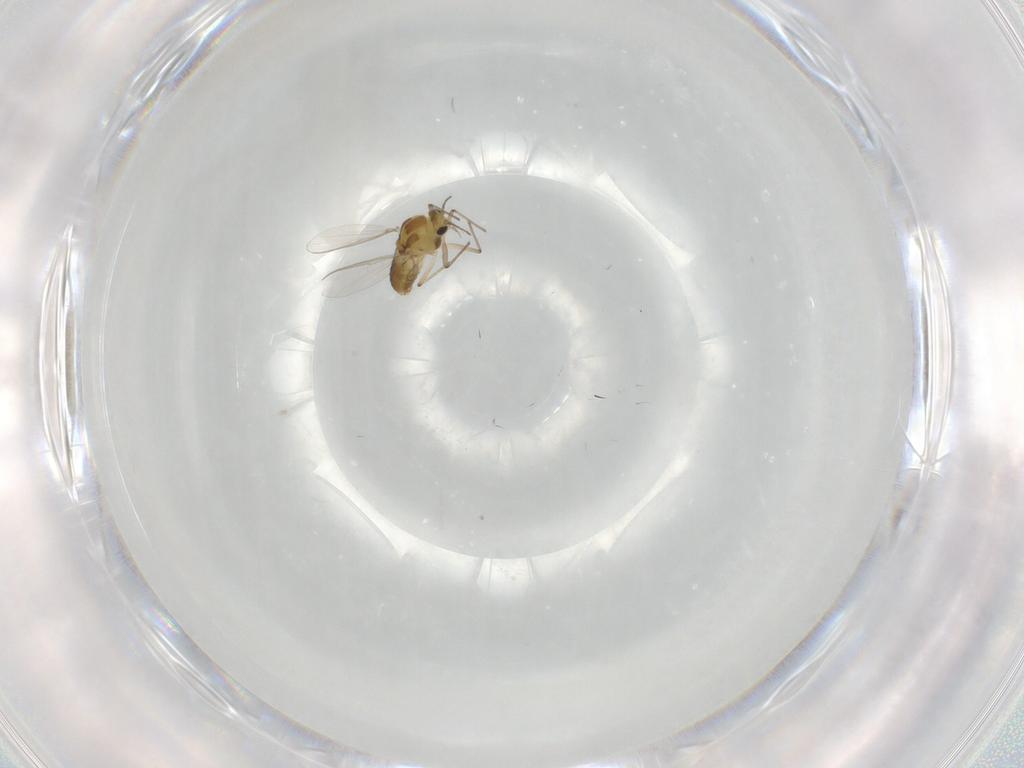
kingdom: Animalia
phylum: Arthropoda
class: Insecta
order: Diptera
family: Chironomidae
